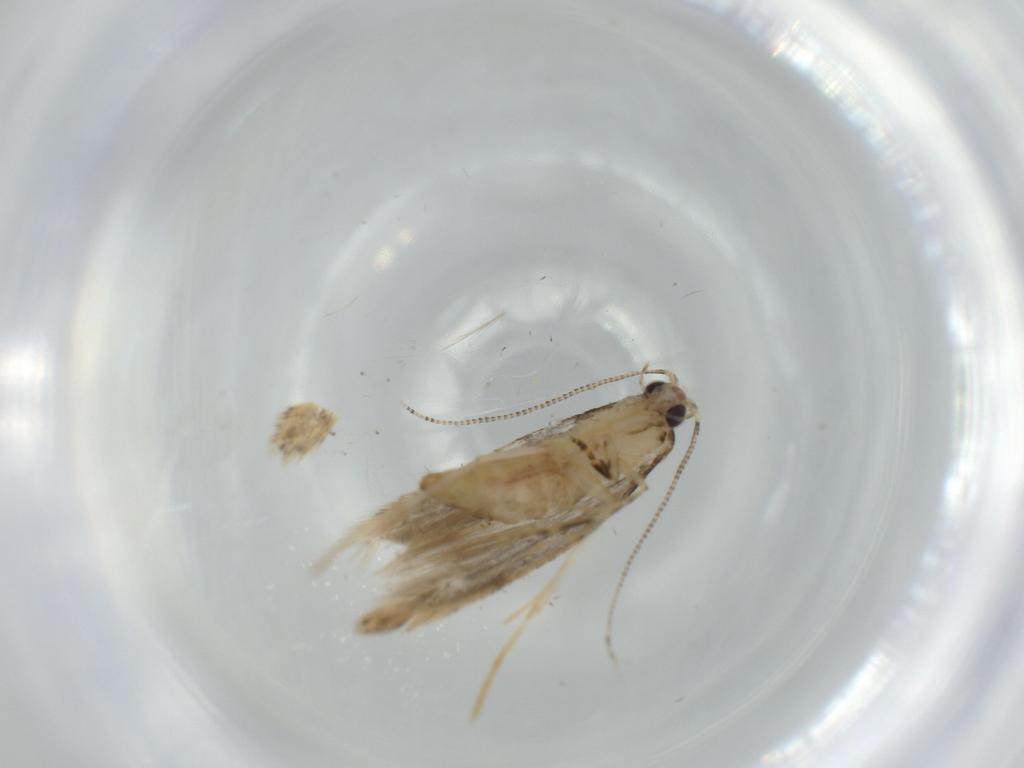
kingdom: Animalia
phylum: Arthropoda
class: Insecta
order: Lepidoptera
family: Tineidae
